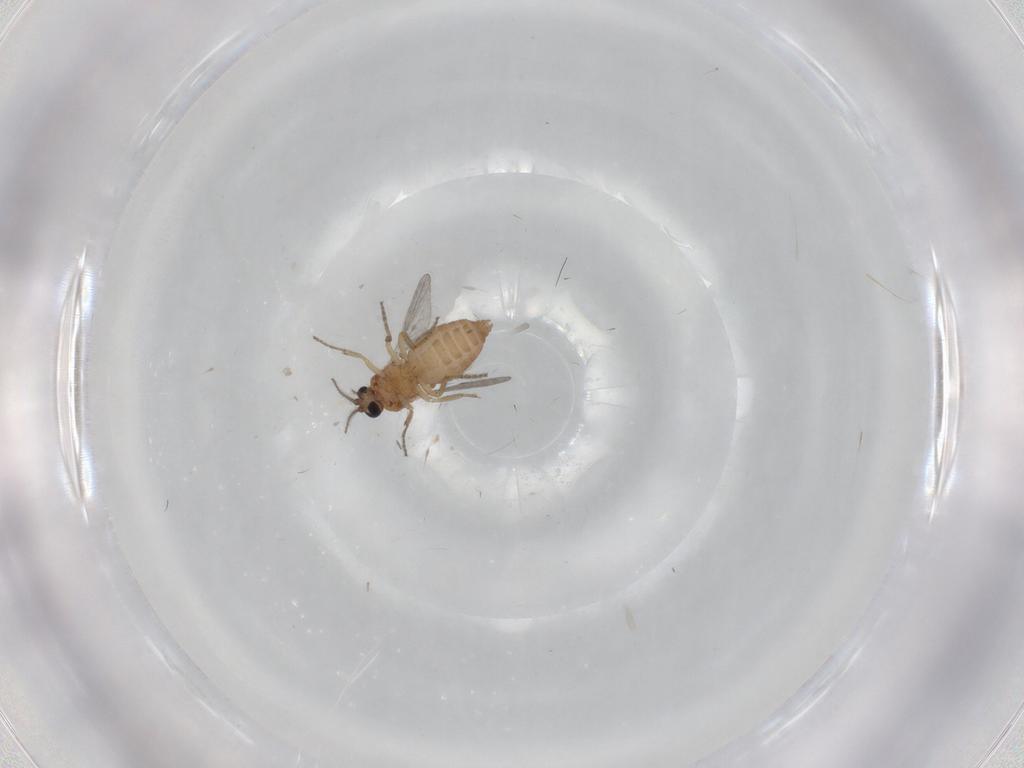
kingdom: Animalia
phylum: Arthropoda
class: Insecta
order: Diptera
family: Ceratopogonidae
